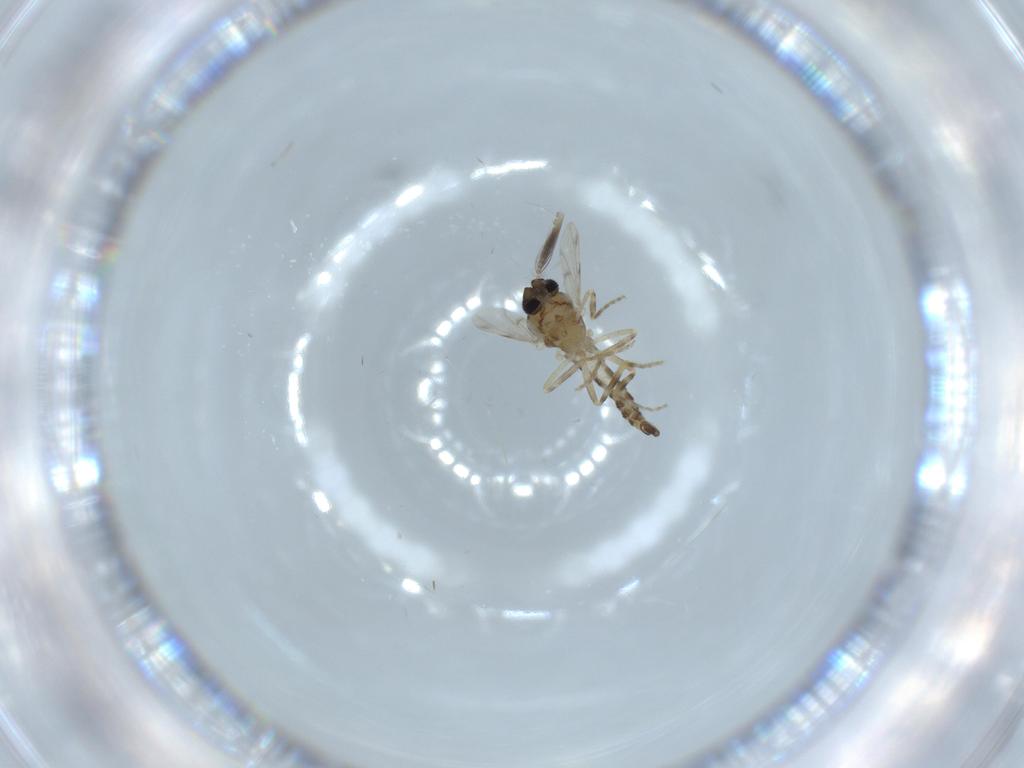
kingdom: Animalia
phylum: Arthropoda
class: Insecta
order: Diptera
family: Ceratopogonidae
